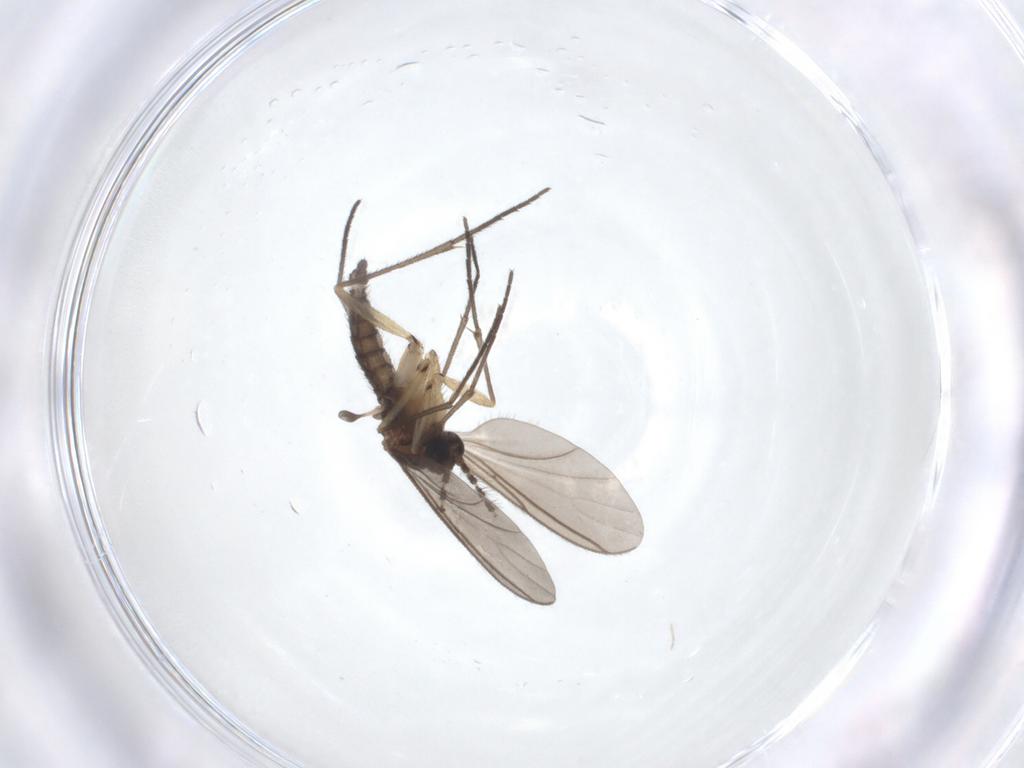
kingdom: Animalia
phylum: Arthropoda
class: Insecta
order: Diptera
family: Sciaridae
